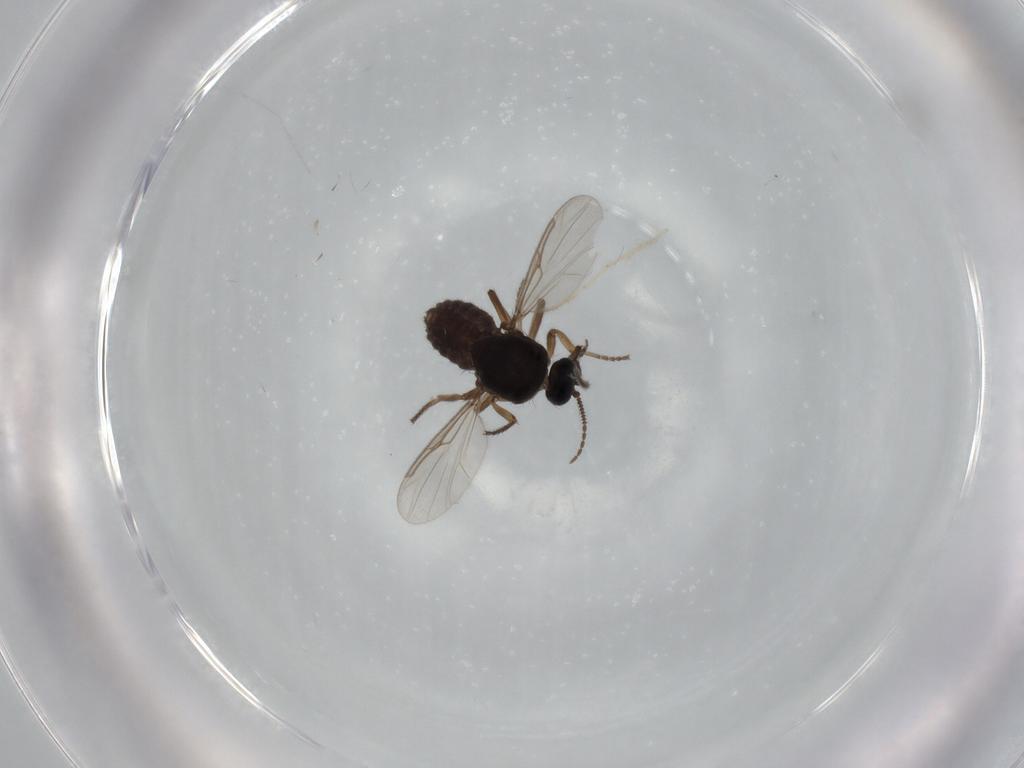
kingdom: Animalia
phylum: Arthropoda
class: Insecta
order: Diptera
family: Ceratopogonidae
